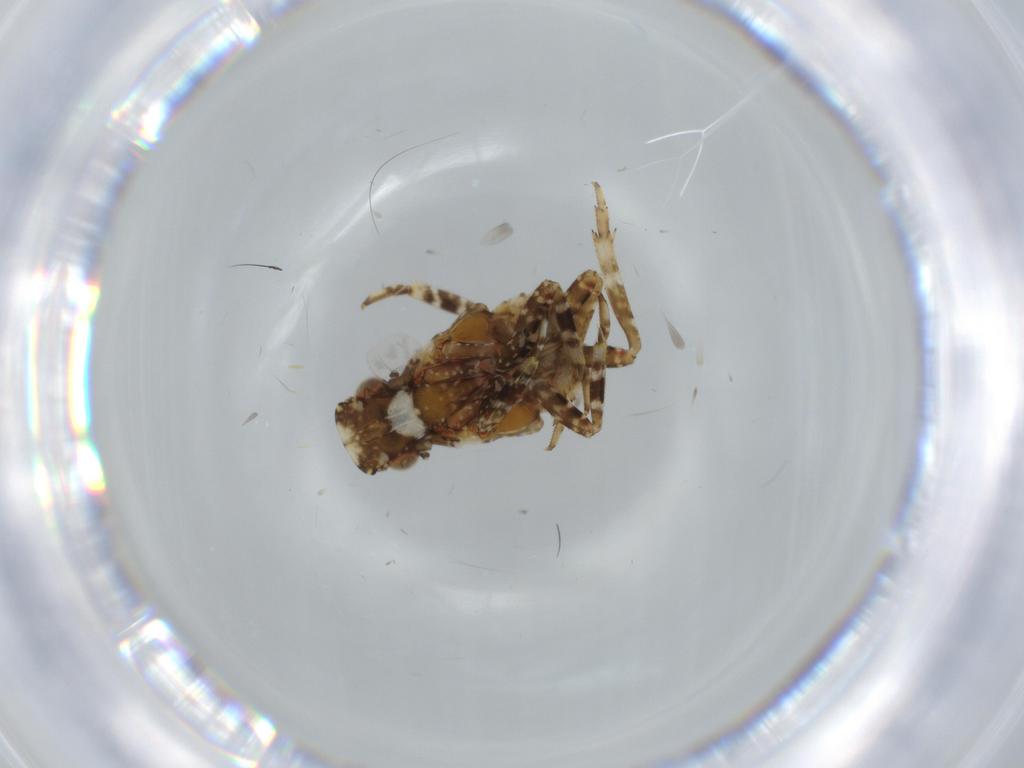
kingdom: Animalia
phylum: Arthropoda
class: Insecta
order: Hemiptera
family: Fulgoridae
